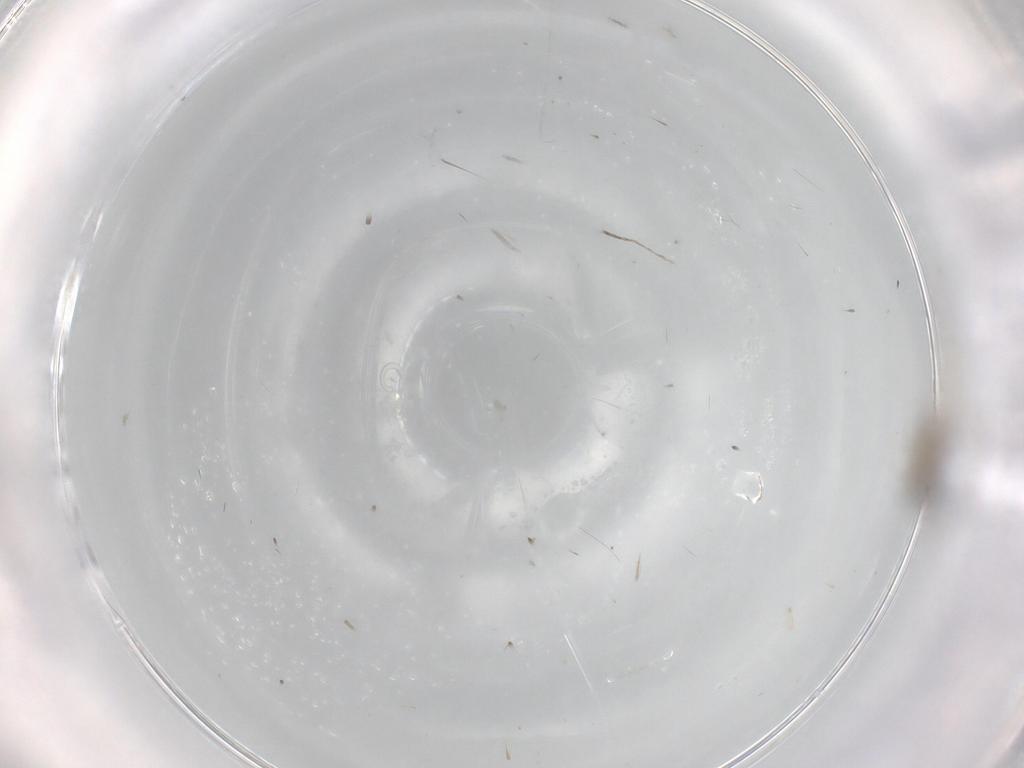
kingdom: Animalia
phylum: Arthropoda
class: Insecta
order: Diptera
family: Cecidomyiidae
